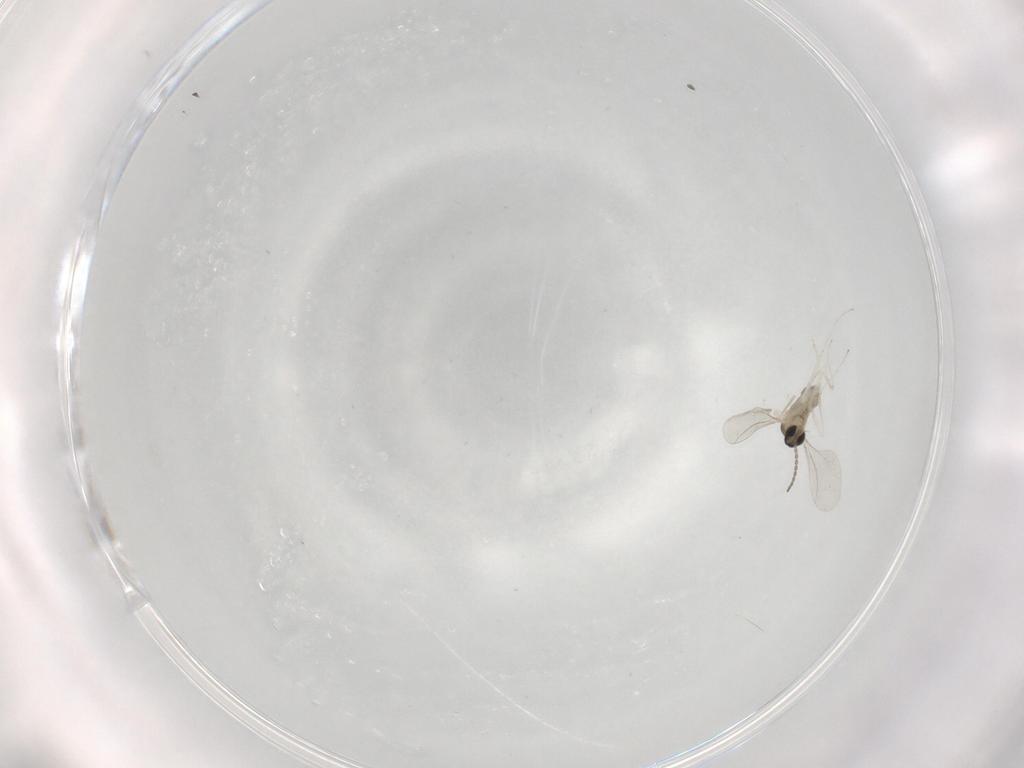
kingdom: Animalia
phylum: Arthropoda
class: Insecta
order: Diptera
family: Cecidomyiidae
